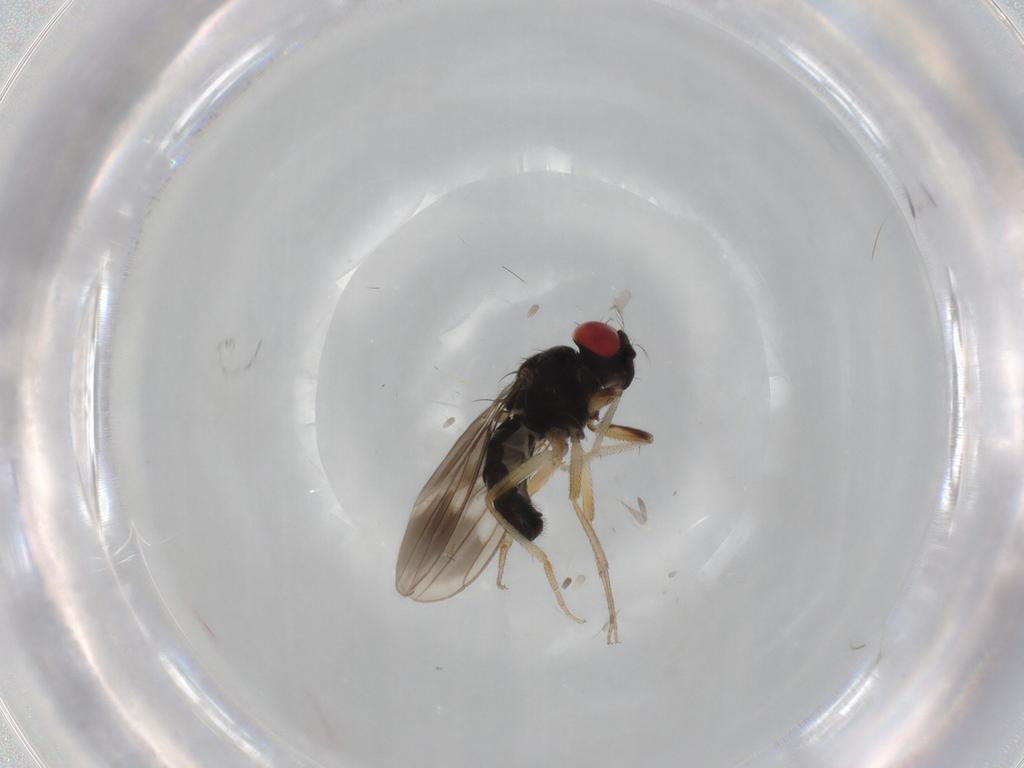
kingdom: Animalia
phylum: Arthropoda
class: Insecta
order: Diptera
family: Drosophilidae
